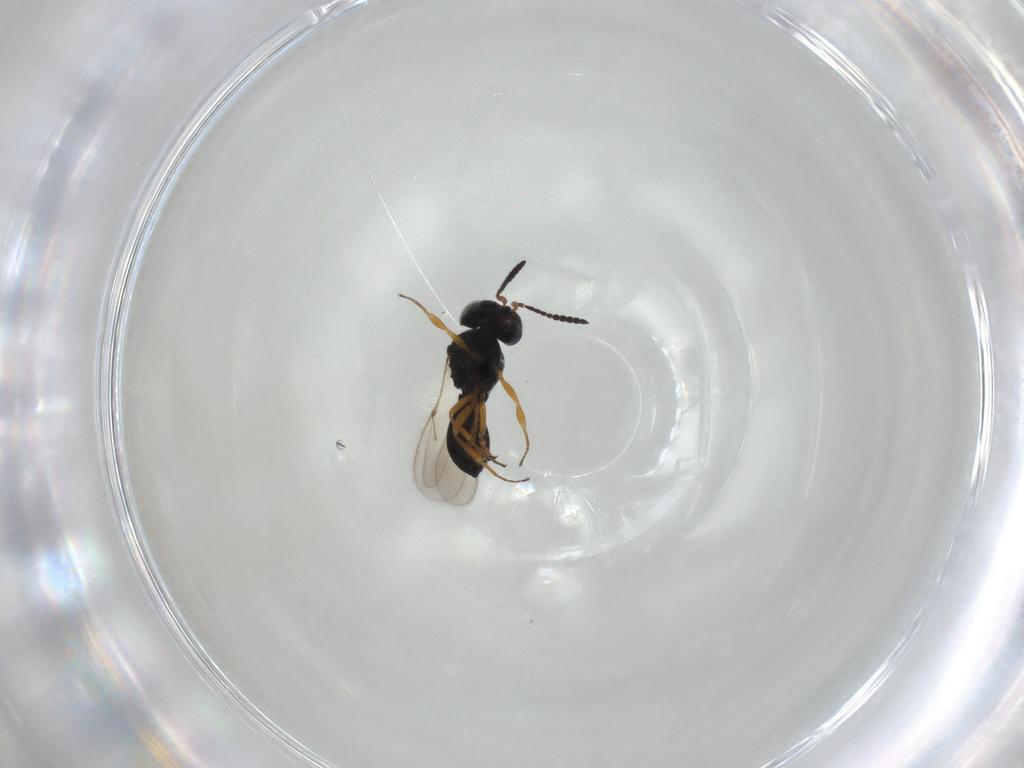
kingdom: Animalia
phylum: Arthropoda
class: Insecta
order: Hymenoptera
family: Scelionidae
